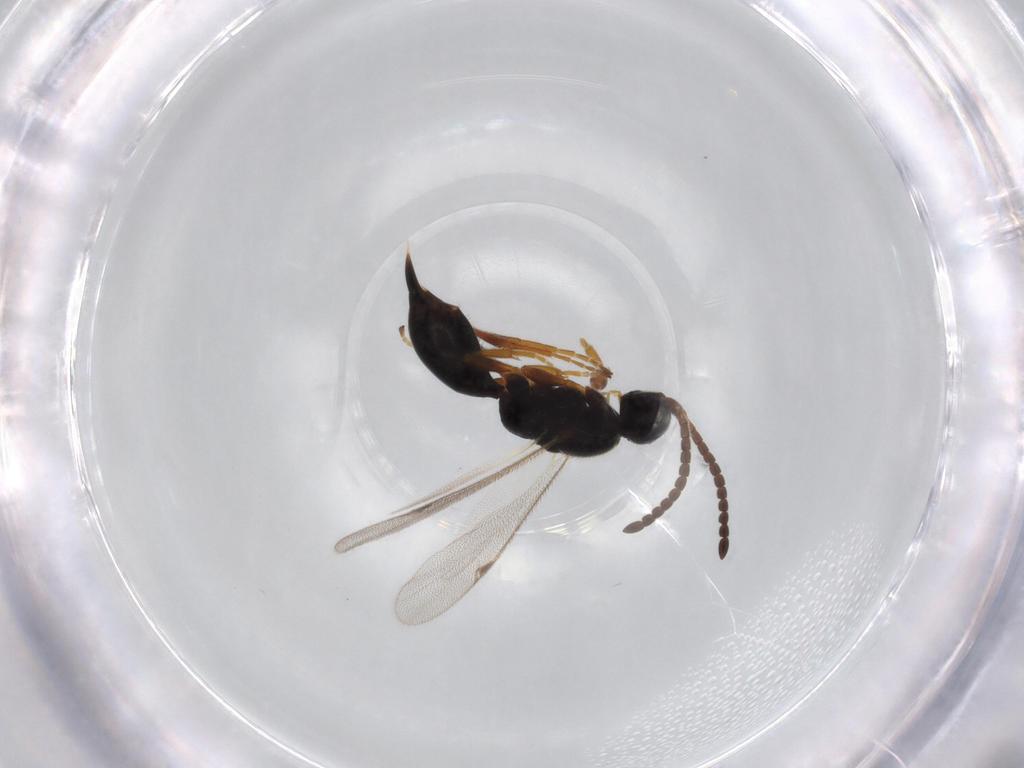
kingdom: Animalia
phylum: Arthropoda
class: Insecta
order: Hymenoptera
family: Proctotrupidae
